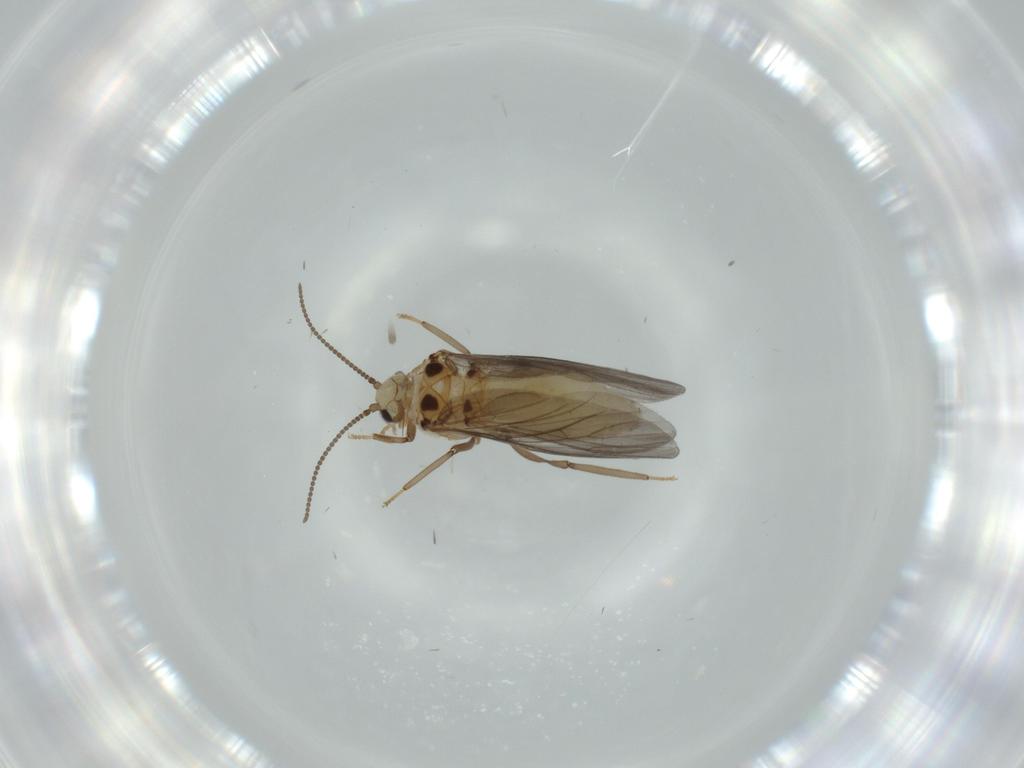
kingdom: Animalia
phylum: Arthropoda
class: Insecta
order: Neuroptera
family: Coniopterygidae
